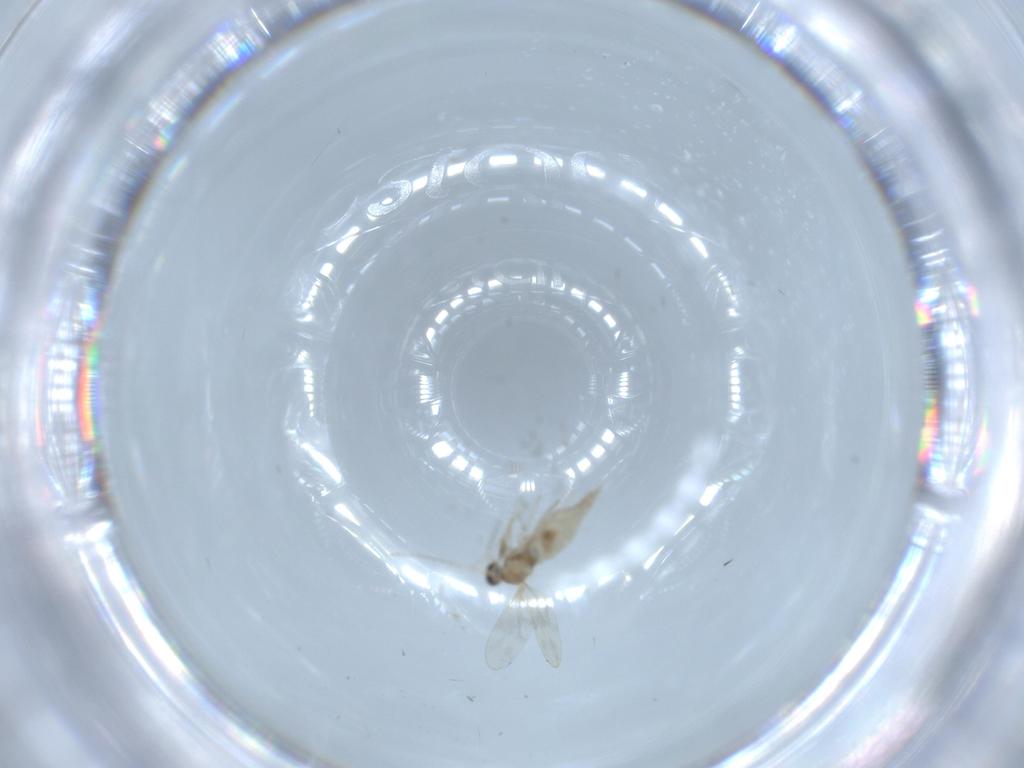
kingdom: Animalia
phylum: Arthropoda
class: Insecta
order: Diptera
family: Cecidomyiidae
